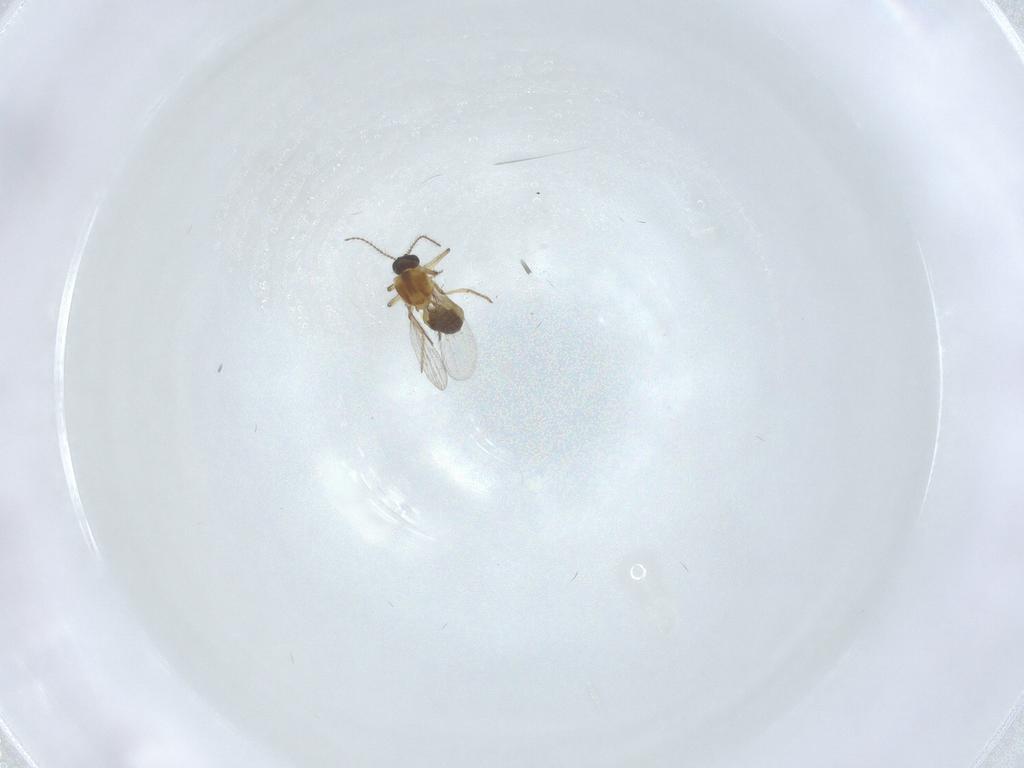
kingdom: Animalia
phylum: Arthropoda
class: Insecta
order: Diptera
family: Ceratopogonidae
